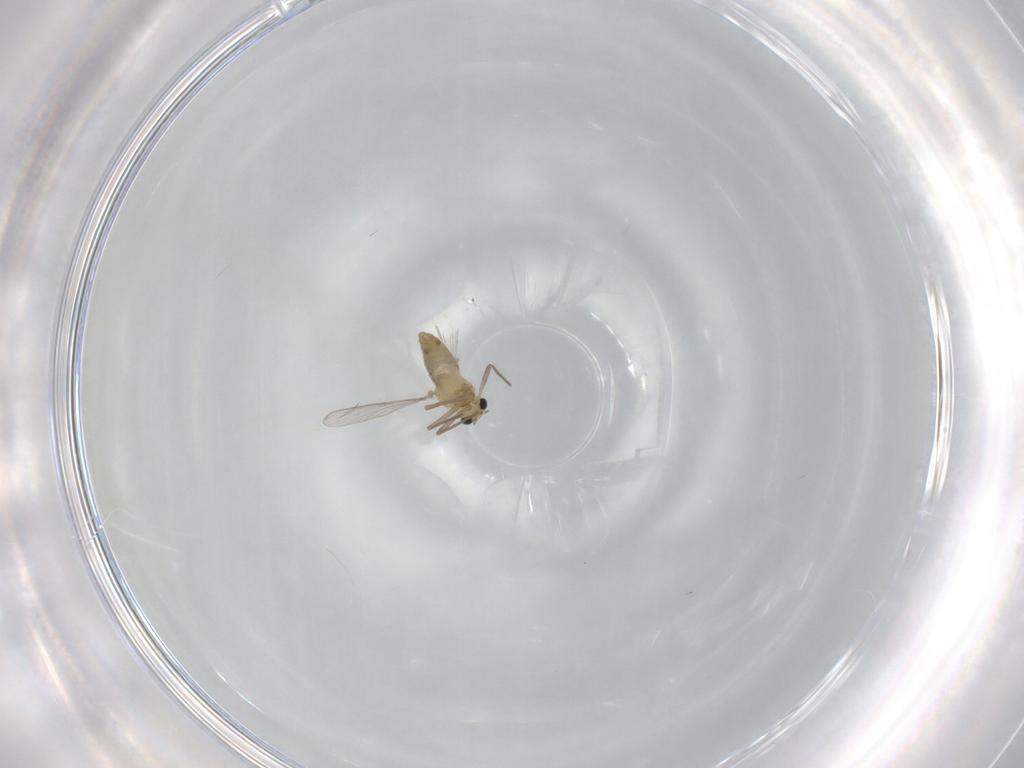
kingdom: Animalia
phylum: Arthropoda
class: Insecta
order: Diptera
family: Chironomidae
